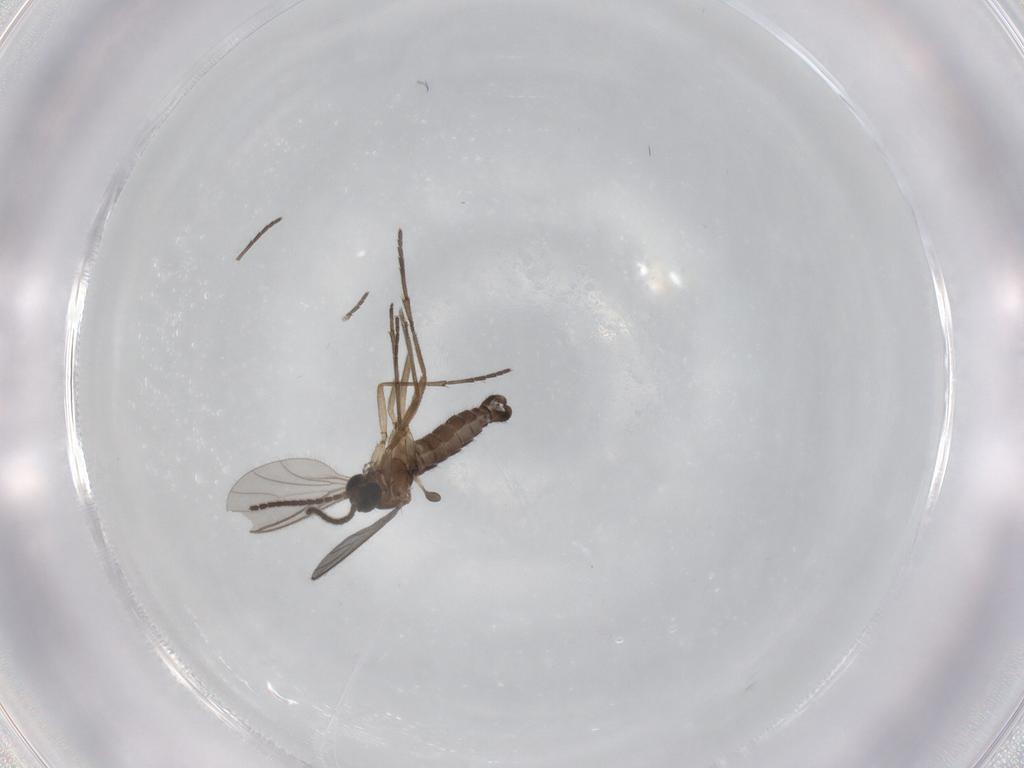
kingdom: Animalia
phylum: Arthropoda
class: Insecta
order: Diptera
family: Sciaridae
